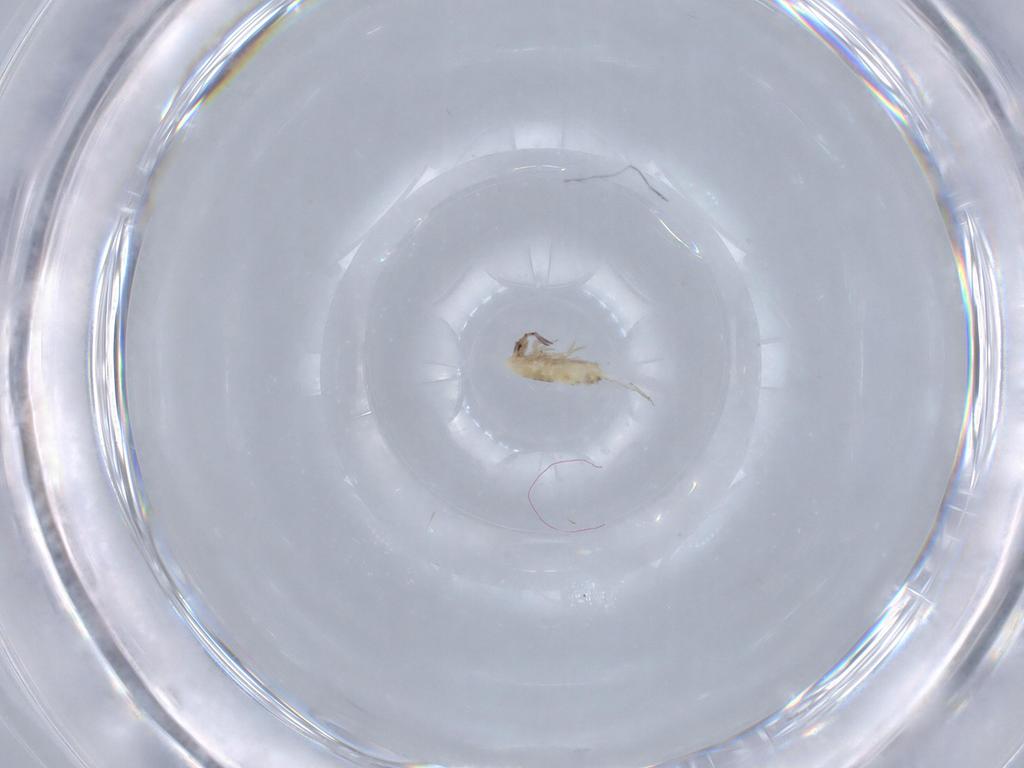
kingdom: Animalia
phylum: Arthropoda
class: Collembola
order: Entomobryomorpha
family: Entomobryidae
